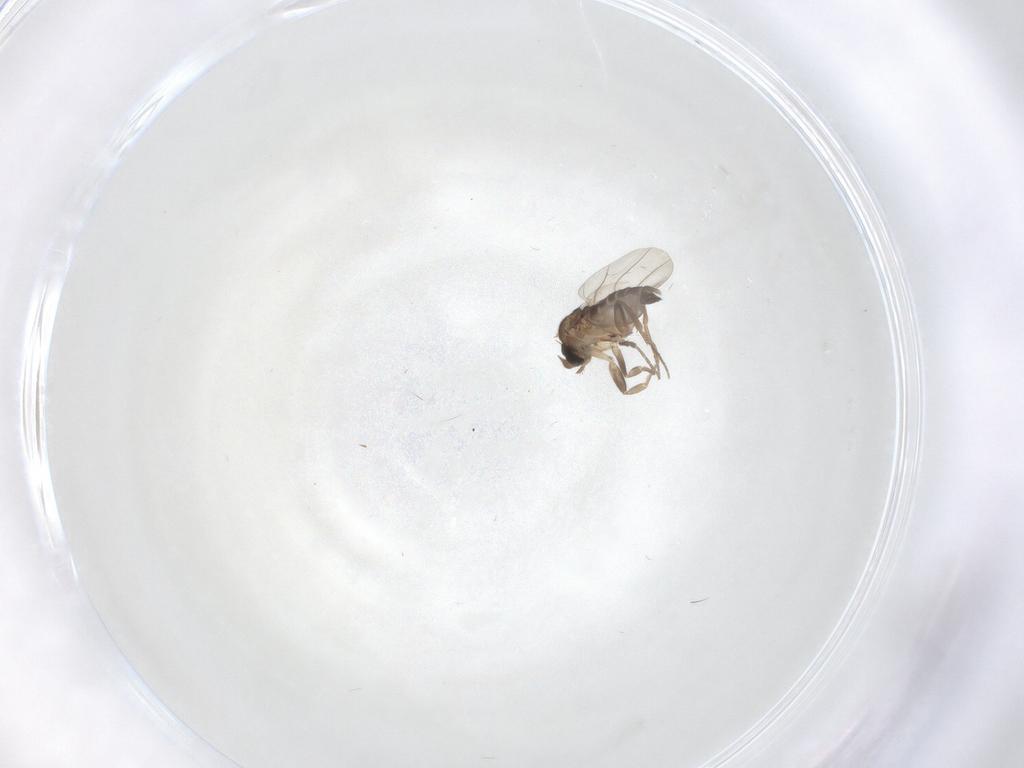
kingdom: Animalia
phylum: Arthropoda
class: Insecta
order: Diptera
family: Phoridae
